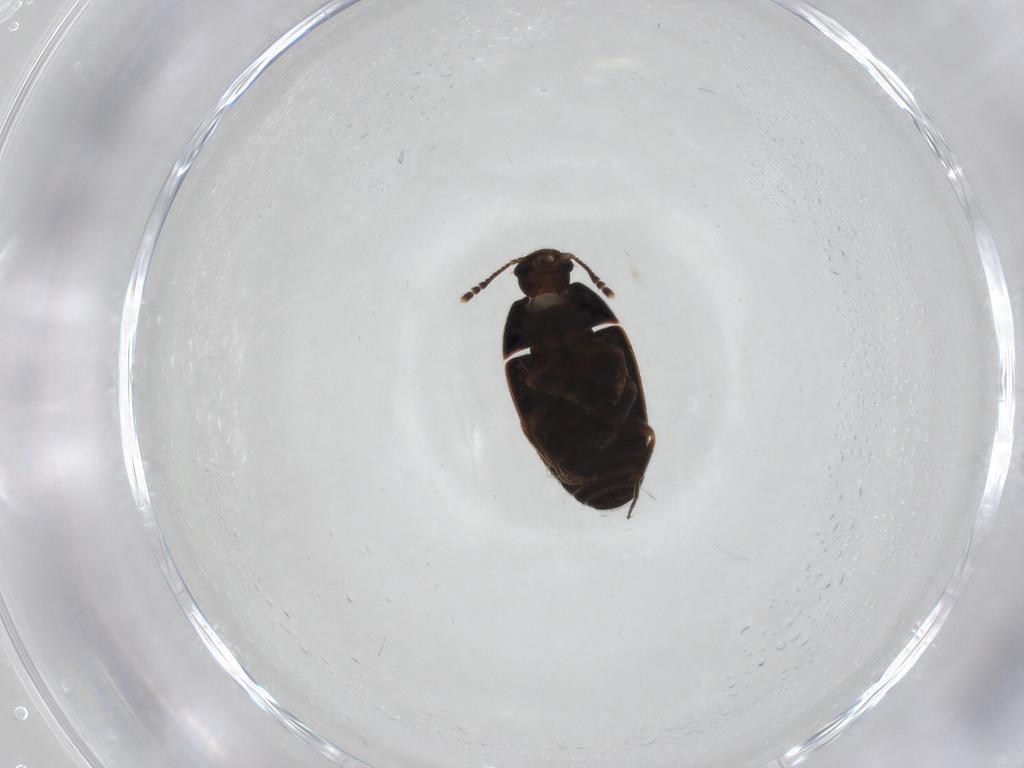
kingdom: Animalia
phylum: Arthropoda
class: Insecta
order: Coleoptera
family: Mycetophagidae
